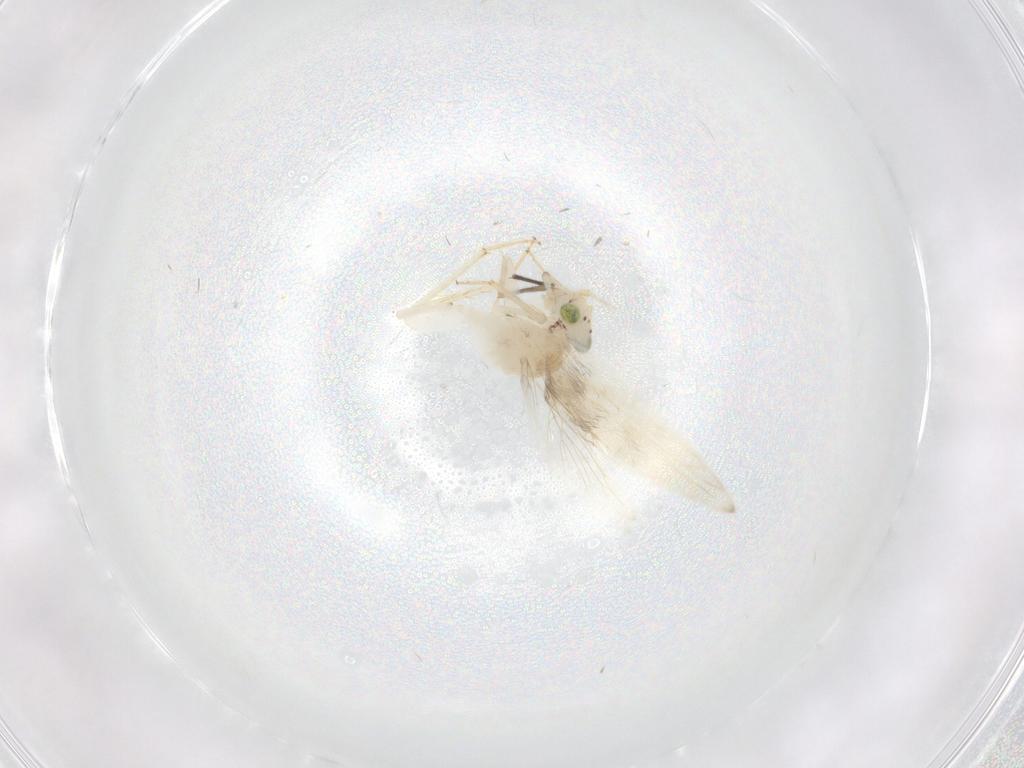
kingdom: Animalia
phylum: Arthropoda
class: Insecta
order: Psocodea
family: Lepidopsocidae
